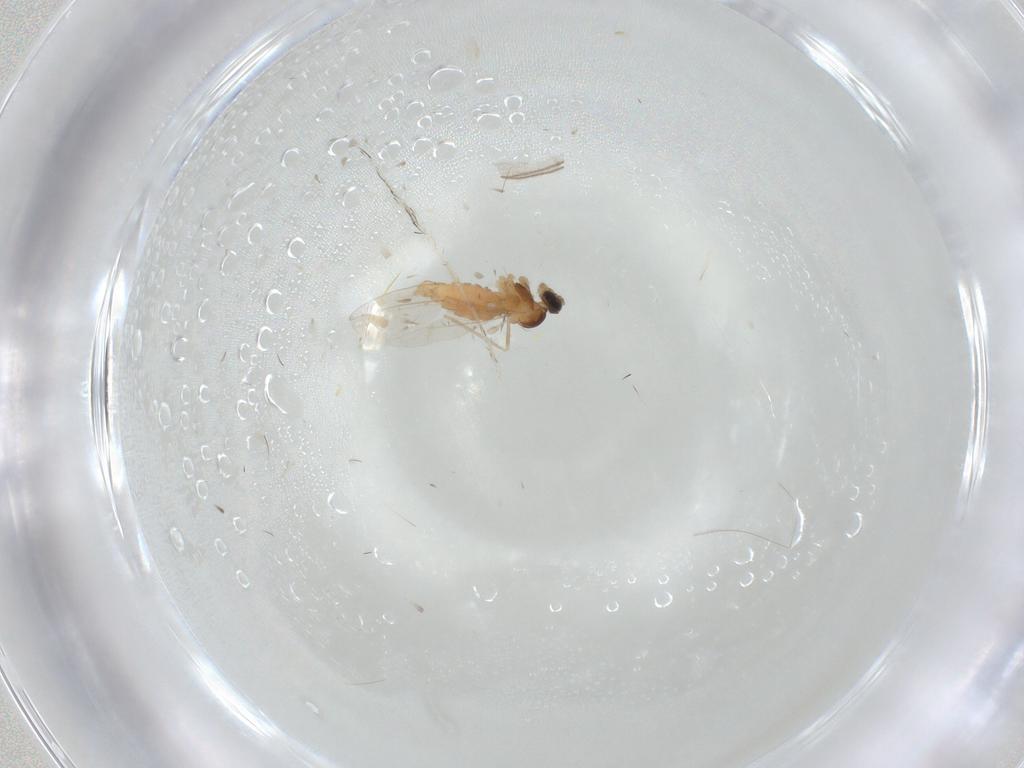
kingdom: Animalia
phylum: Arthropoda
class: Insecta
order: Diptera
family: Cecidomyiidae
